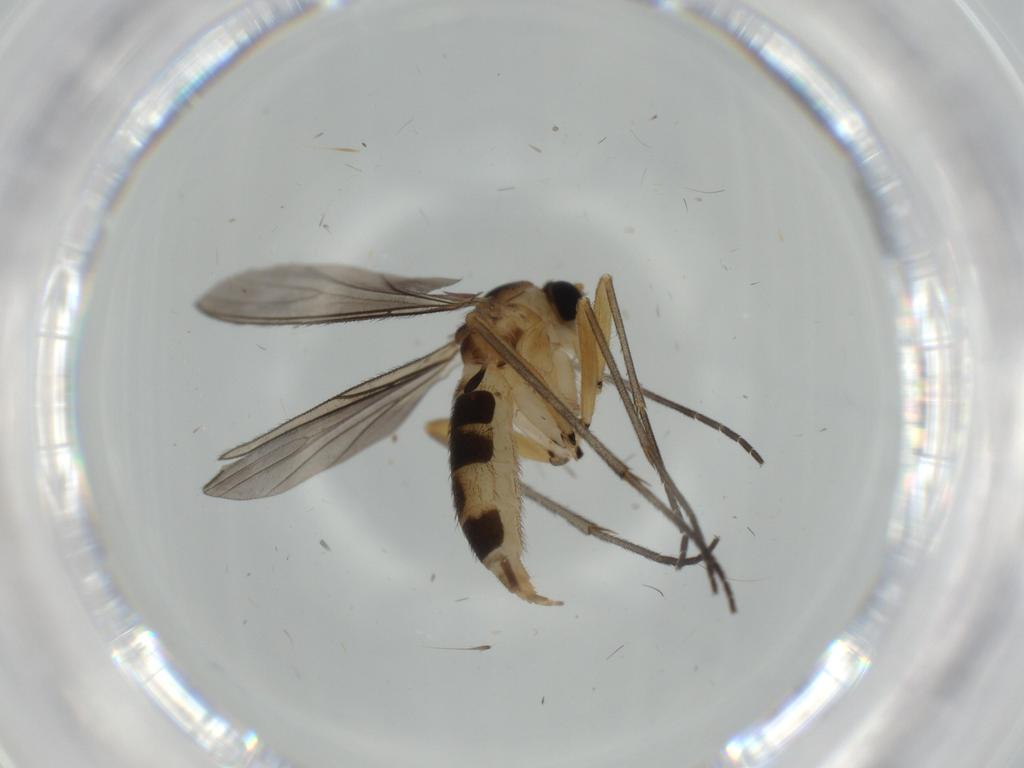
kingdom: Animalia
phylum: Arthropoda
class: Insecta
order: Diptera
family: Sciaridae
